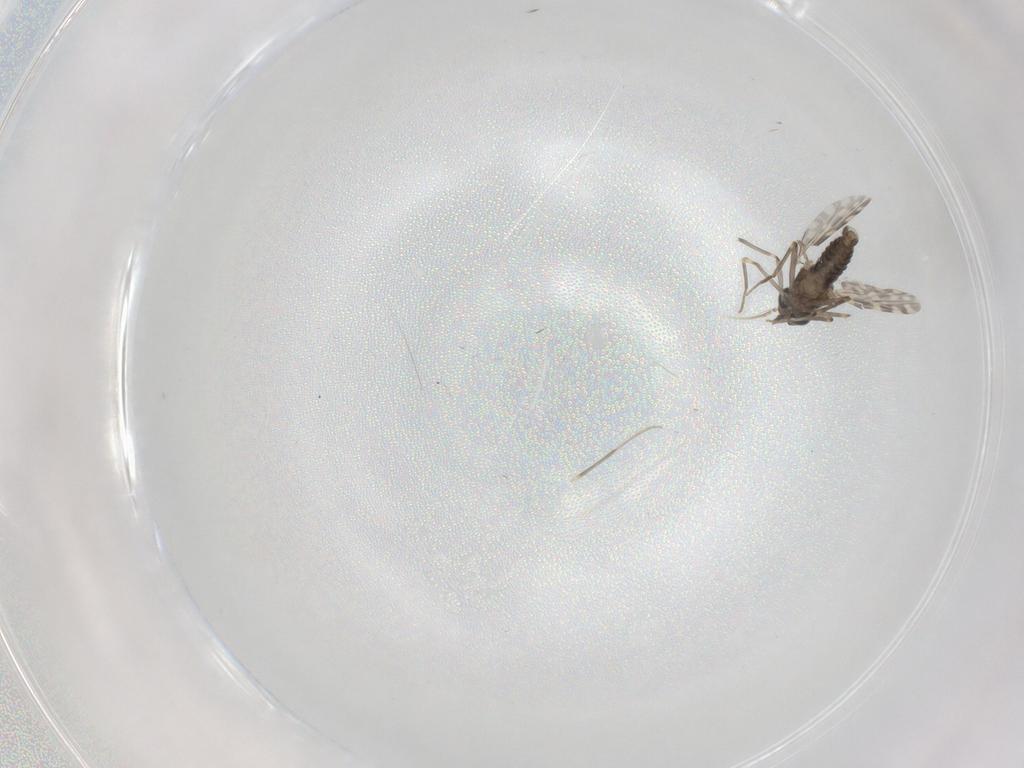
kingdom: Animalia
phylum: Arthropoda
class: Insecta
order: Diptera
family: Ceratopogonidae
